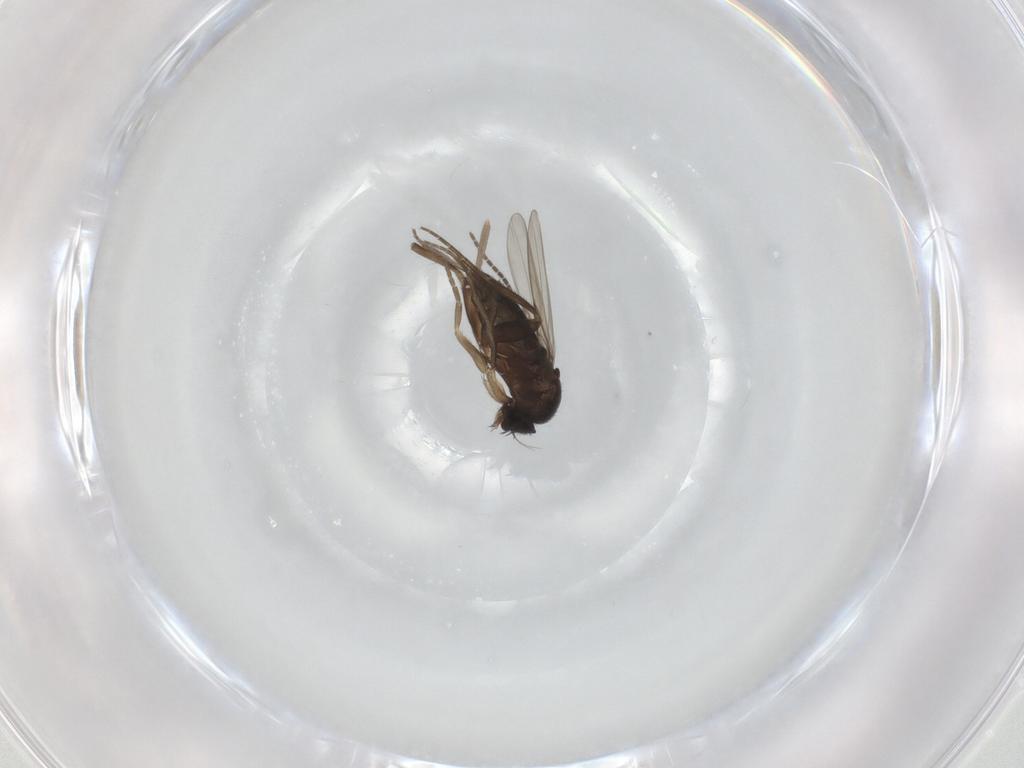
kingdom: Animalia
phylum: Arthropoda
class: Insecta
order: Diptera
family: Phoridae
